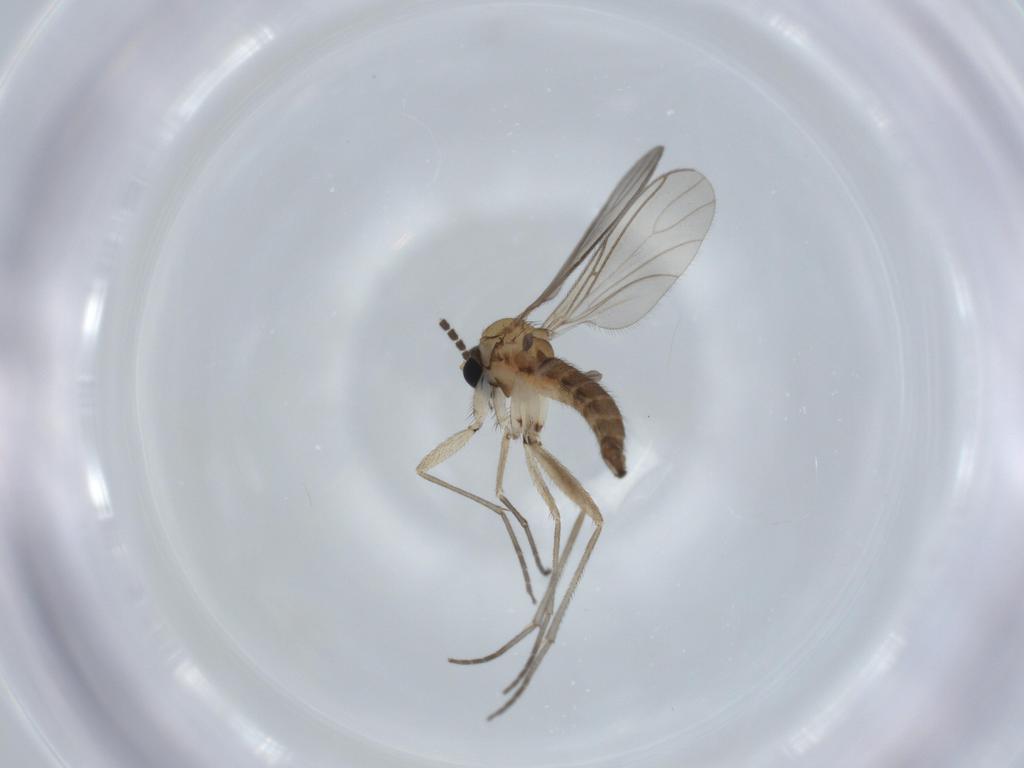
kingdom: Animalia
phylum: Arthropoda
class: Insecta
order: Diptera
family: Sciaridae
